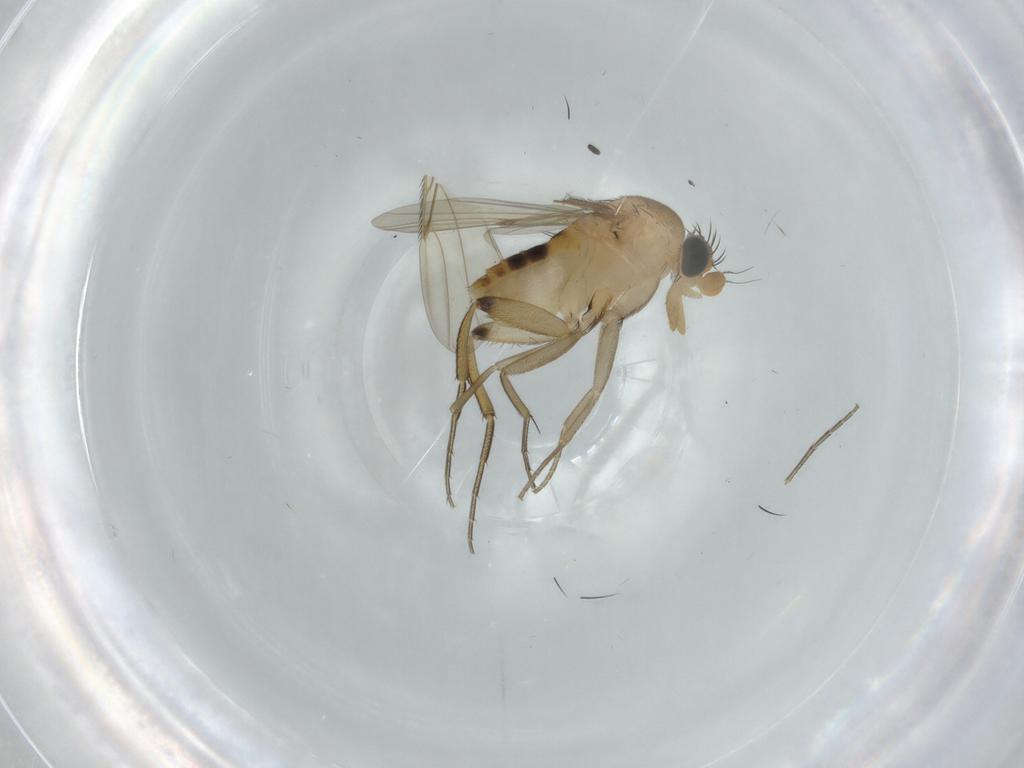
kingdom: Animalia
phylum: Arthropoda
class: Insecta
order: Diptera
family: Phoridae
